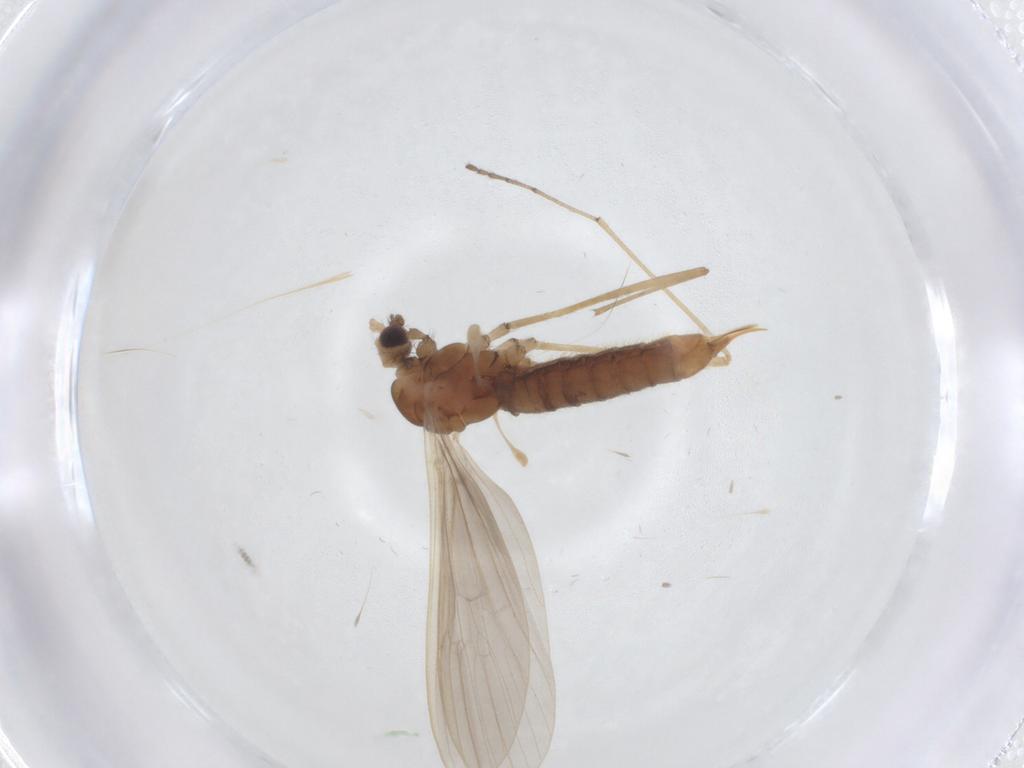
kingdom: Animalia
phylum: Arthropoda
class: Insecta
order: Diptera
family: Limoniidae
